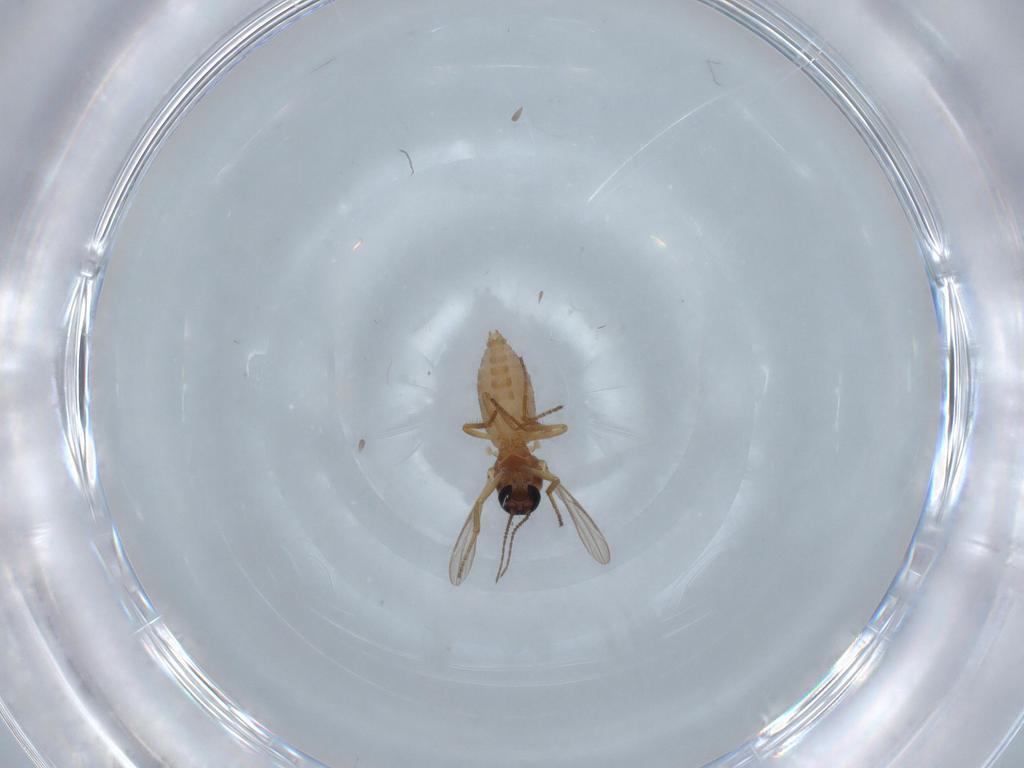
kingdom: Animalia
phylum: Arthropoda
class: Insecta
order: Diptera
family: Ceratopogonidae
